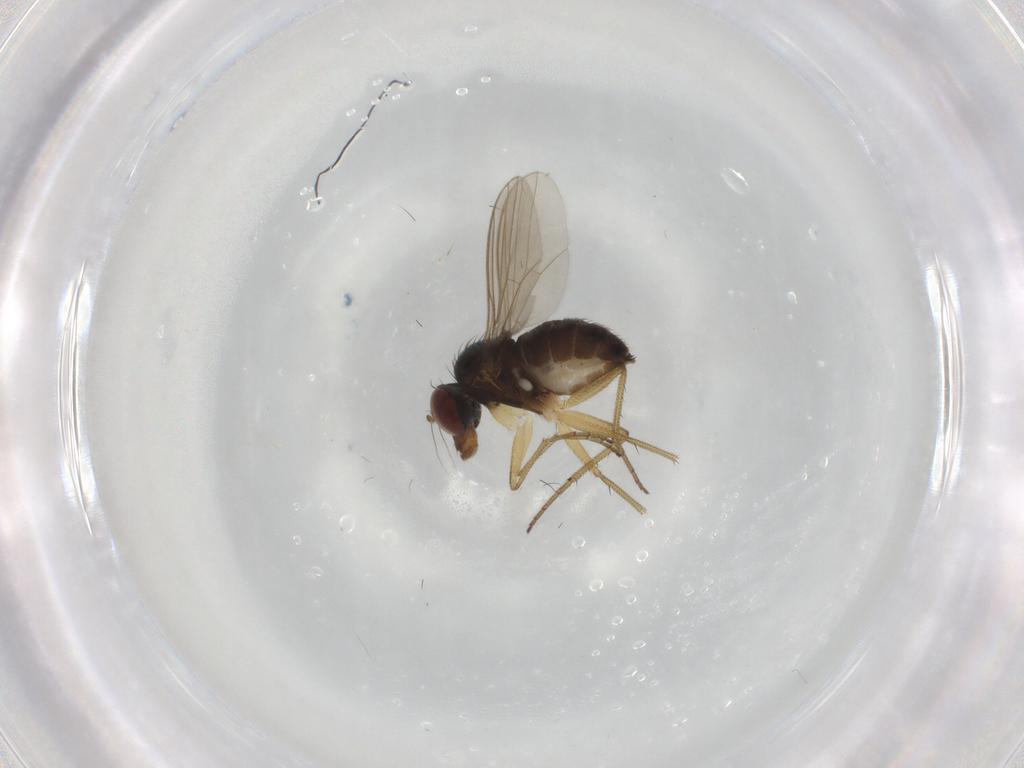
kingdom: Animalia
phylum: Arthropoda
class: Insecta
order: Diptera
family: Dolichopodidae
